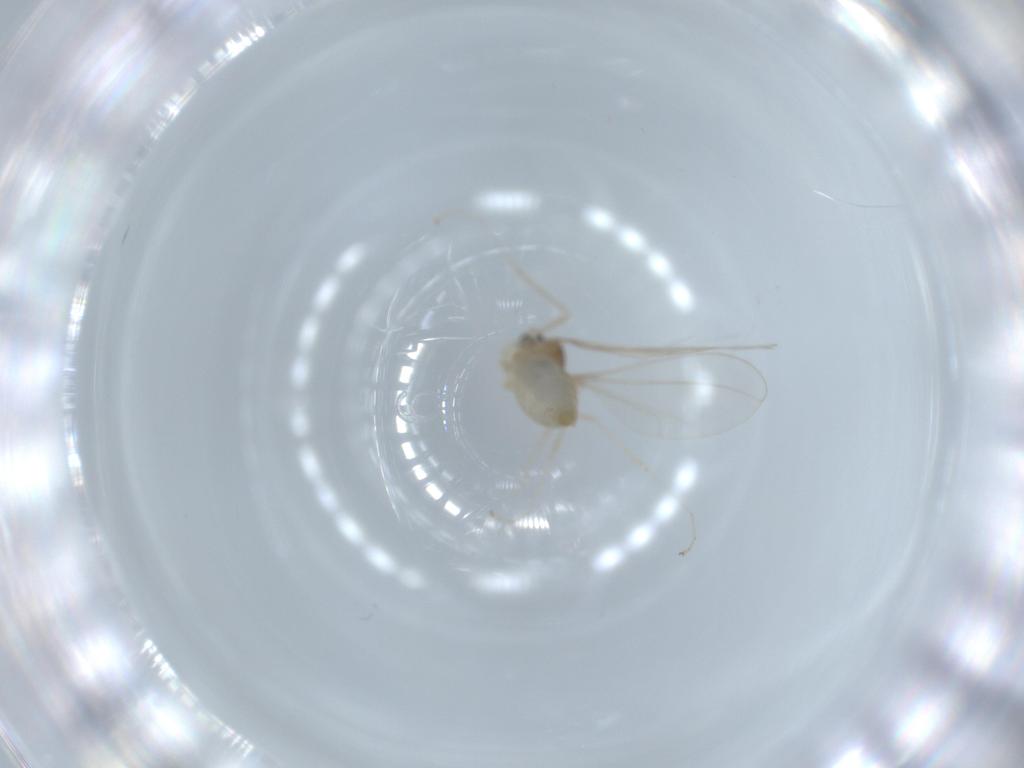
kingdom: Animalia
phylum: Arthropoda
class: Insecta
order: Diptera
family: Cecidomyiidae
